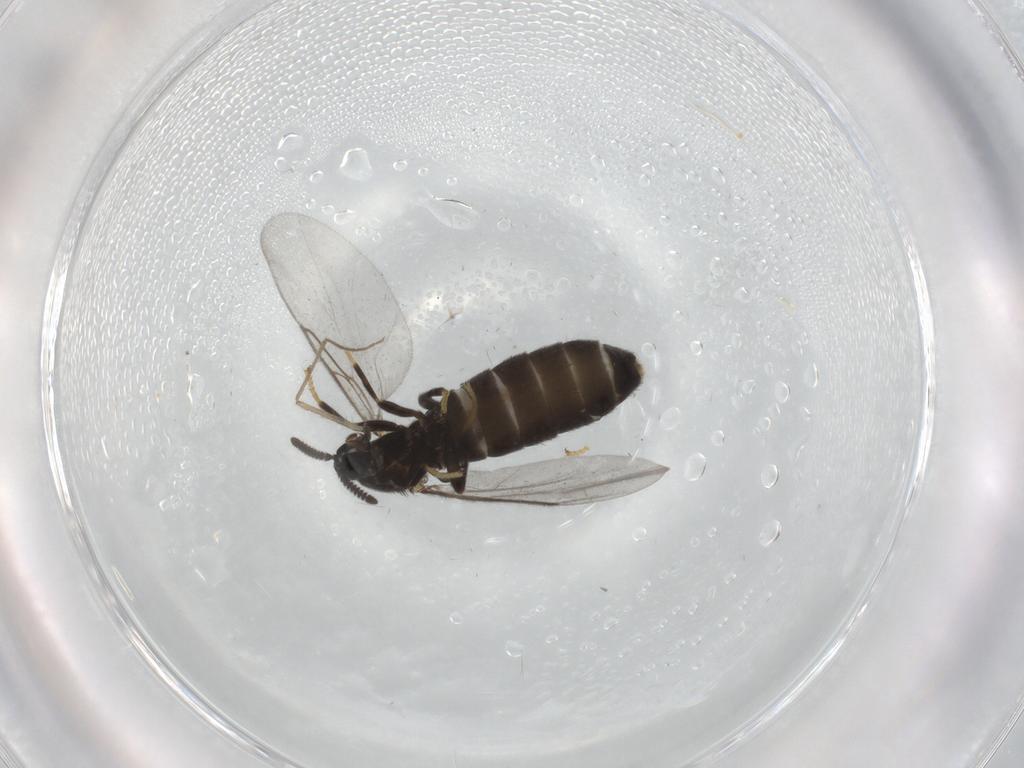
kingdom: Animalia
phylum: Arthropoda
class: Insecta
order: Diptera
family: Scatopsidae
